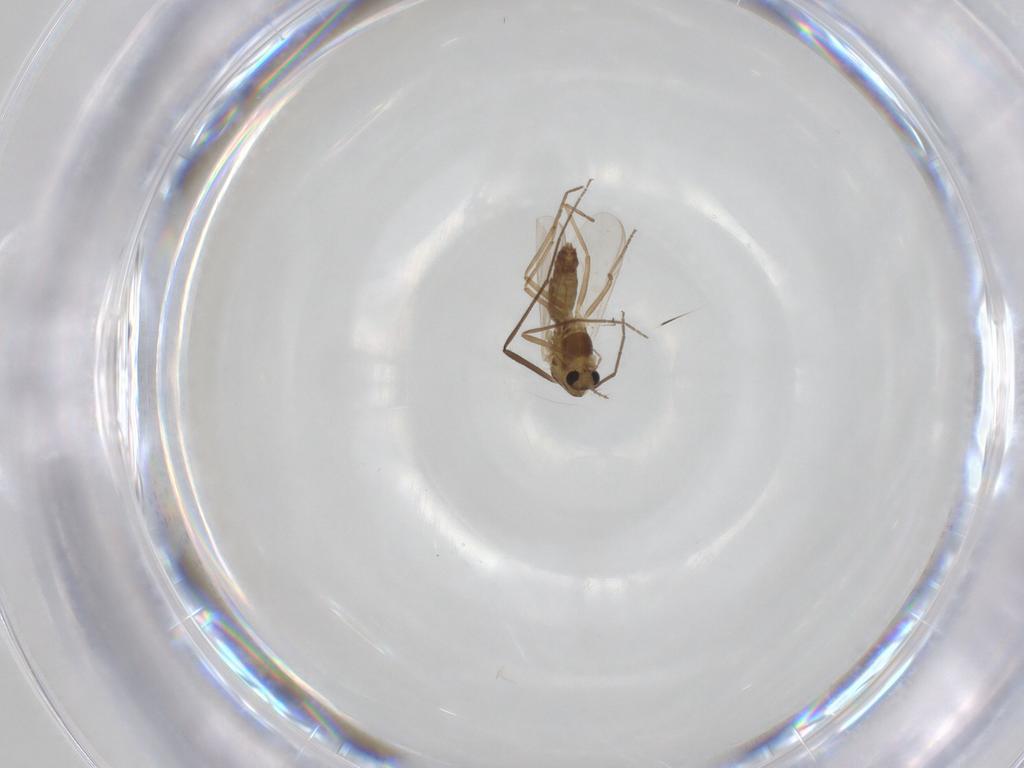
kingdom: Animalia
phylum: Arthropoda
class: Insecta
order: Diptera
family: Chironomidae
